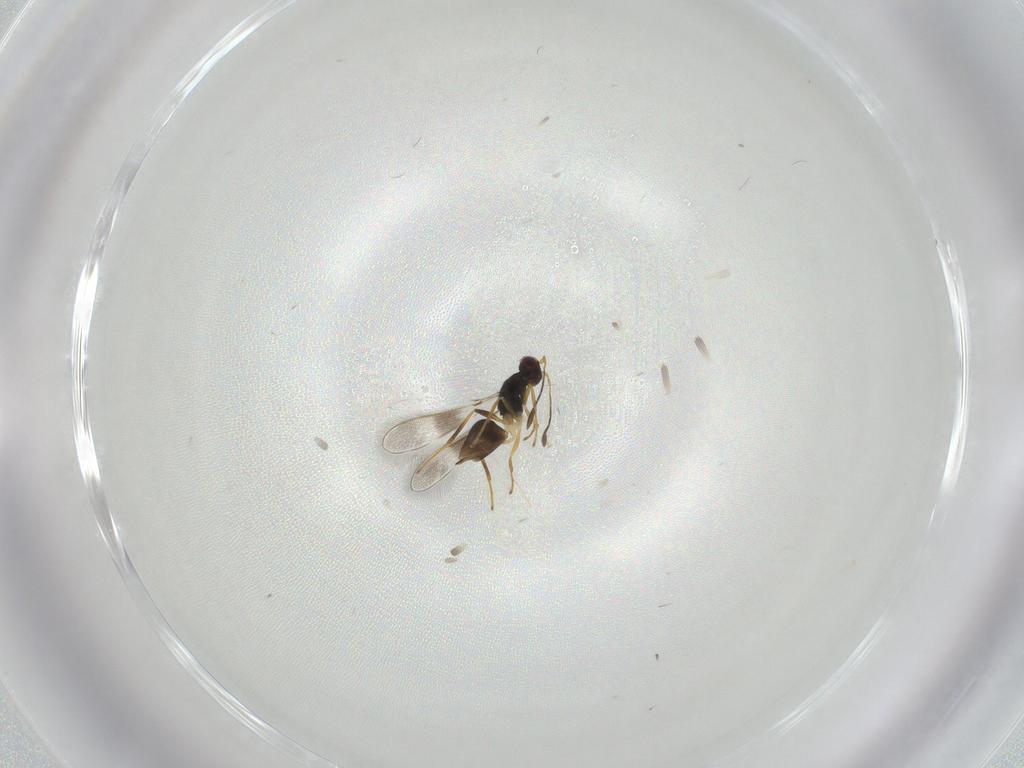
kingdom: Animalia
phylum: Arthropoda
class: Insecta
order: Hymenoptera
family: Mymaridae
